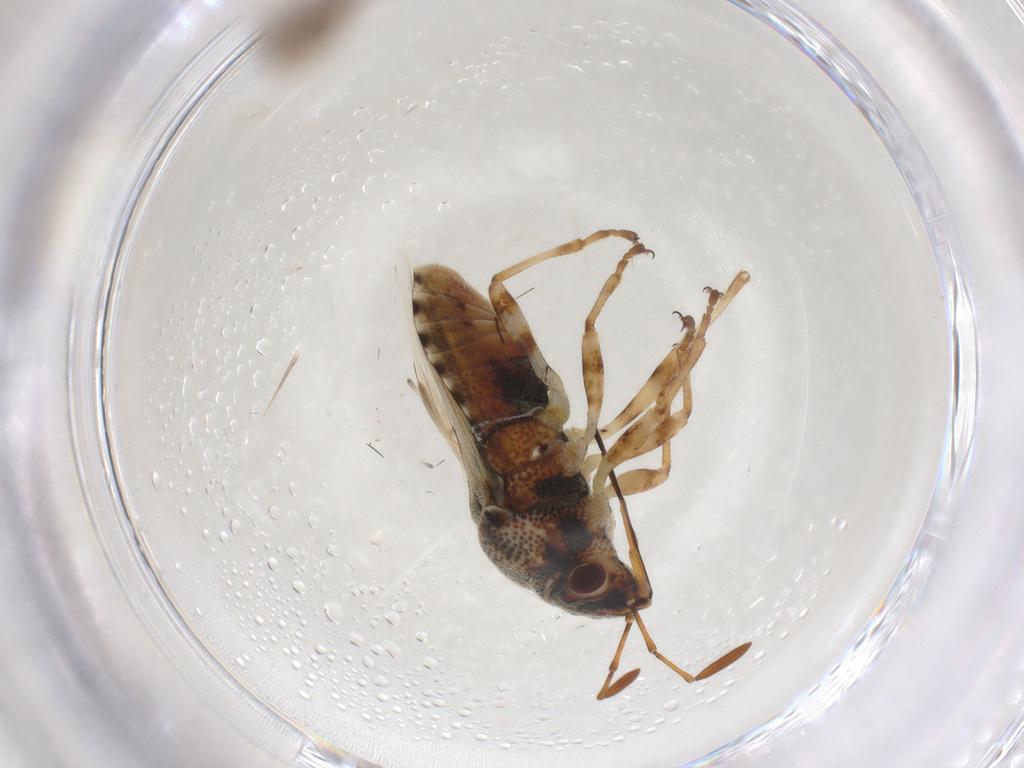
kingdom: Animalia
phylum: Arthropoda
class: Insecta
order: Hemiptera
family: Lygaeidae
